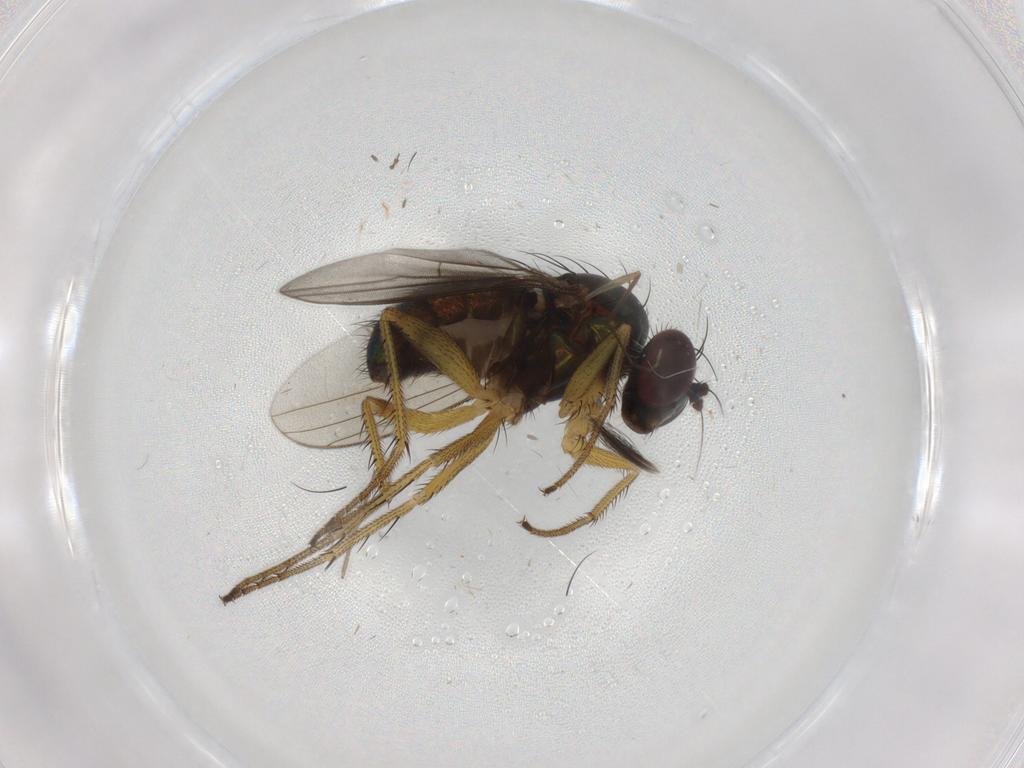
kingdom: Animalia
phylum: Arthropoda
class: Insecta
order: Diptera
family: Dolichopodidae
